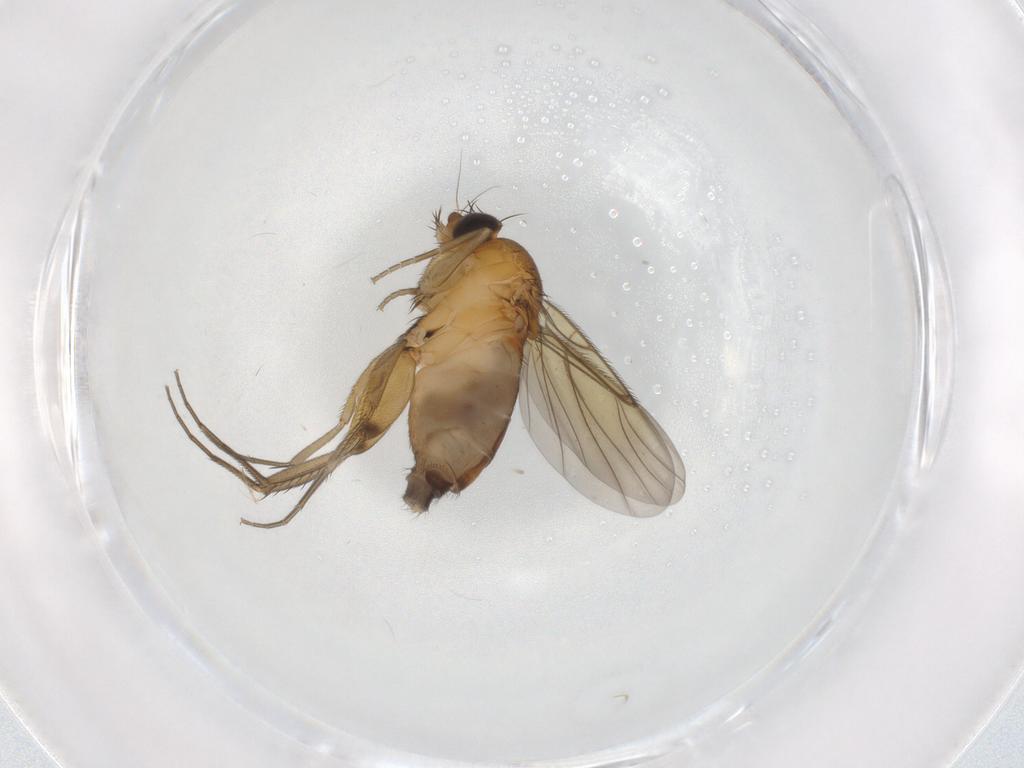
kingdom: Animalia
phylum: Arthropoda
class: Insecta
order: Diptera
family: Phoridae
